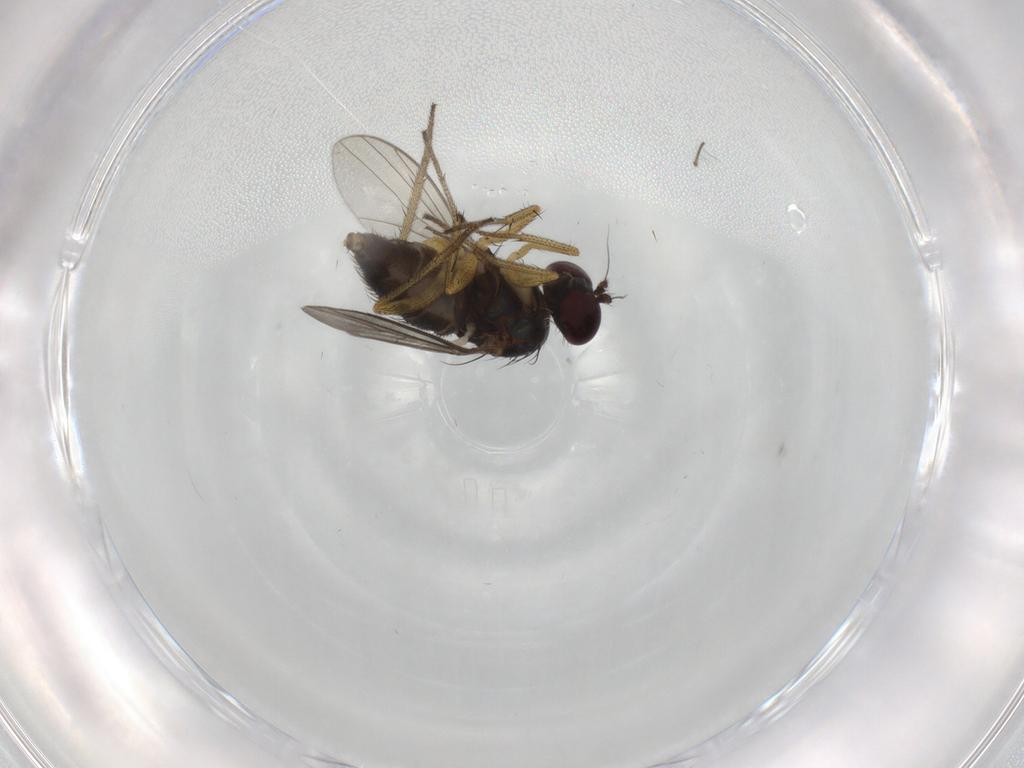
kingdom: Animalia
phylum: Arthropoda
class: Insecta
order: Diptera
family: Dolichopodidae
